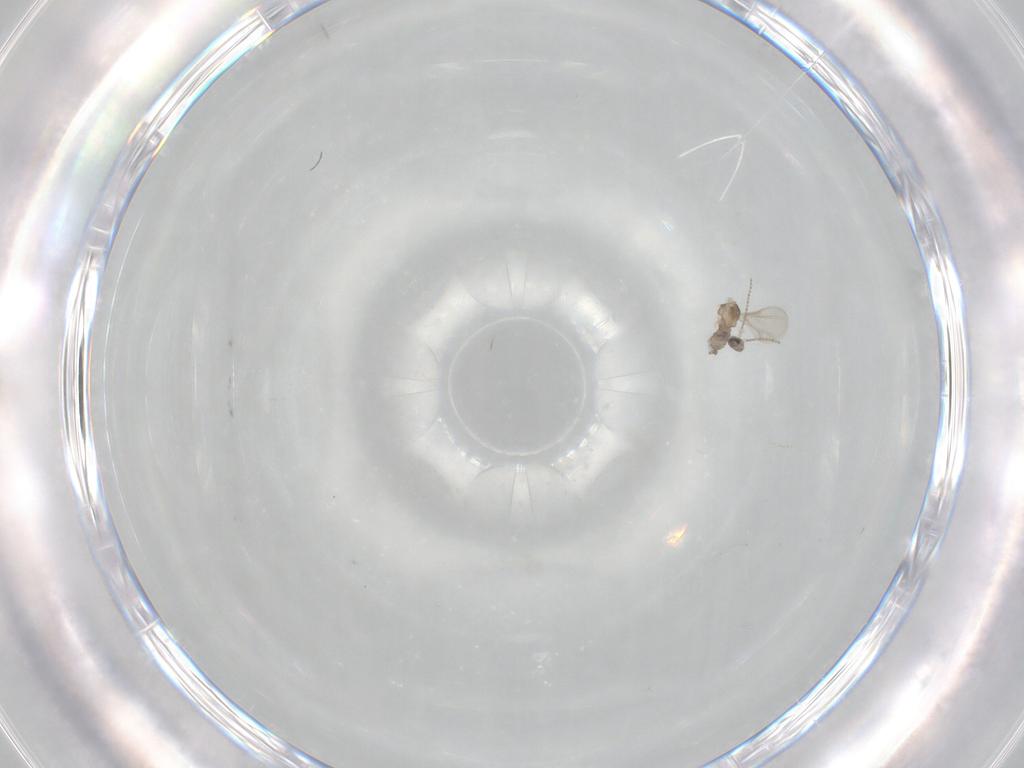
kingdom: Animalia
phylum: Arthropoda
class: Insecta
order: Diptera
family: Cecidomyiidae
